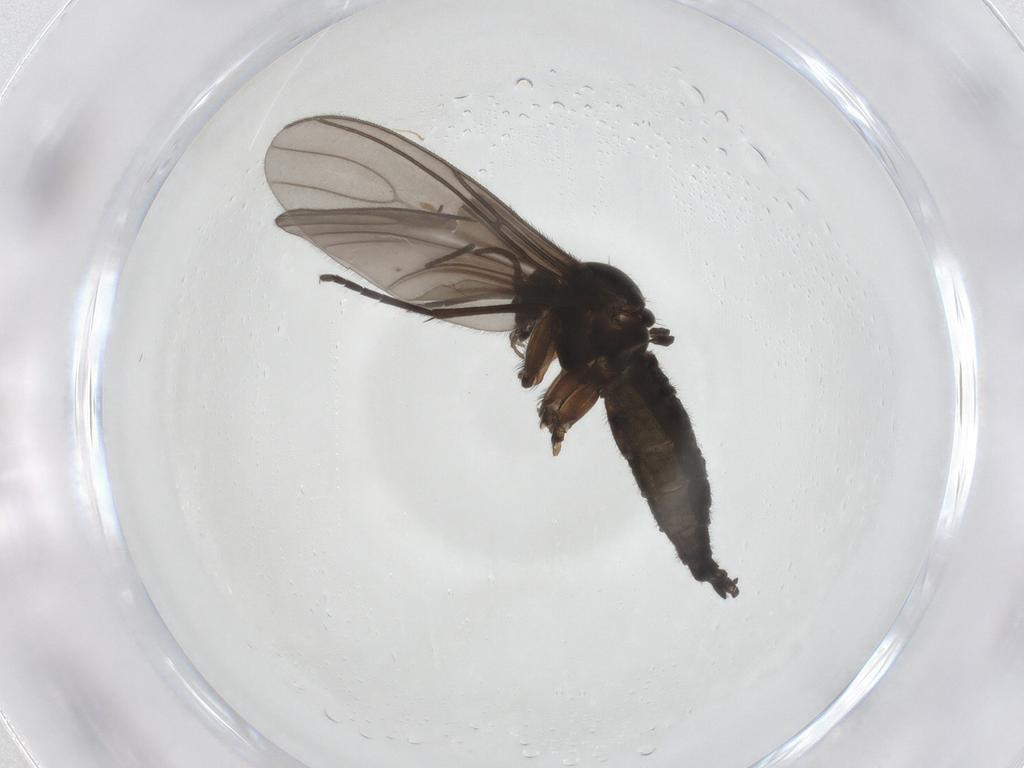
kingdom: Animalia
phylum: Arthropoda
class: Insecta
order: Diptera
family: Sciaridae
